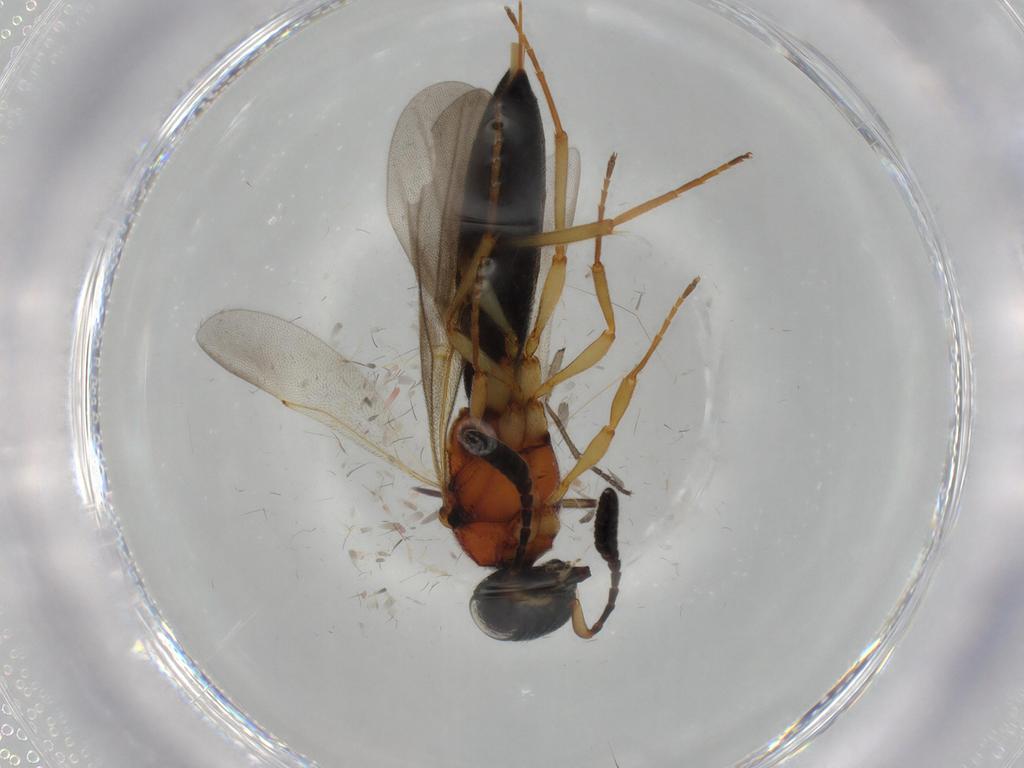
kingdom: Animalia
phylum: Arthropoda
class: Insecta
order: Hymenoptera
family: Scelionidae
